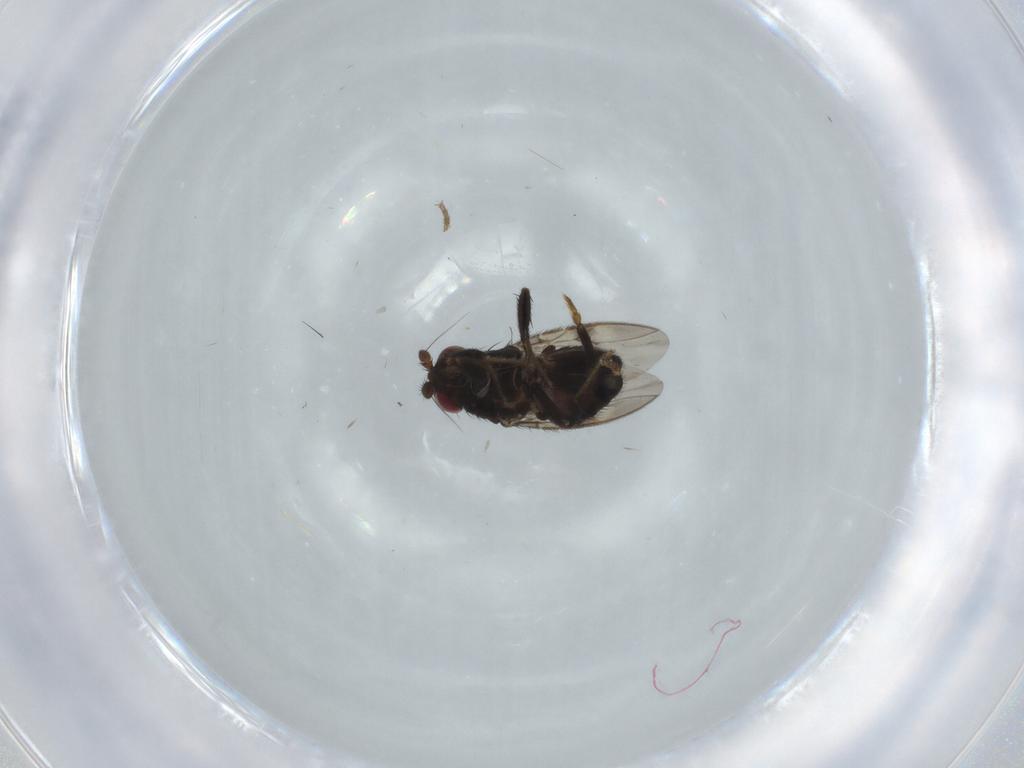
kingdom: Animalia
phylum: Arthropoda
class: Insecta
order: Diptera
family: Sphaeroceridae
